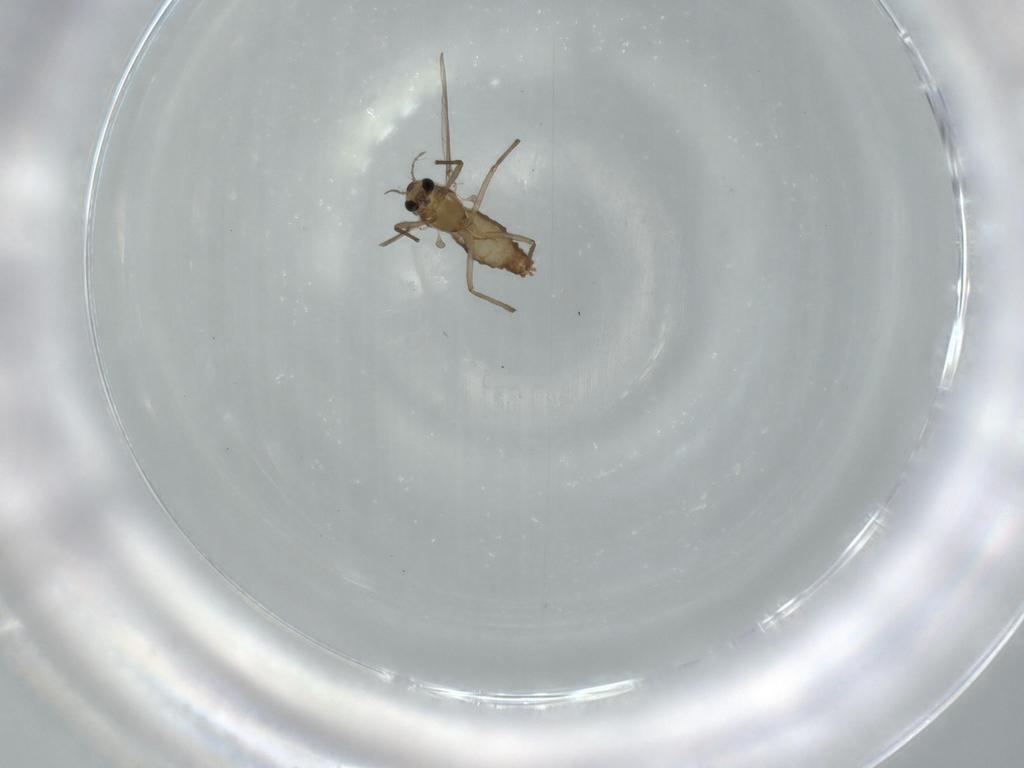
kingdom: Animalia
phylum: Arthropoda
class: Insecta
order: Diptera
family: Chironomidae
